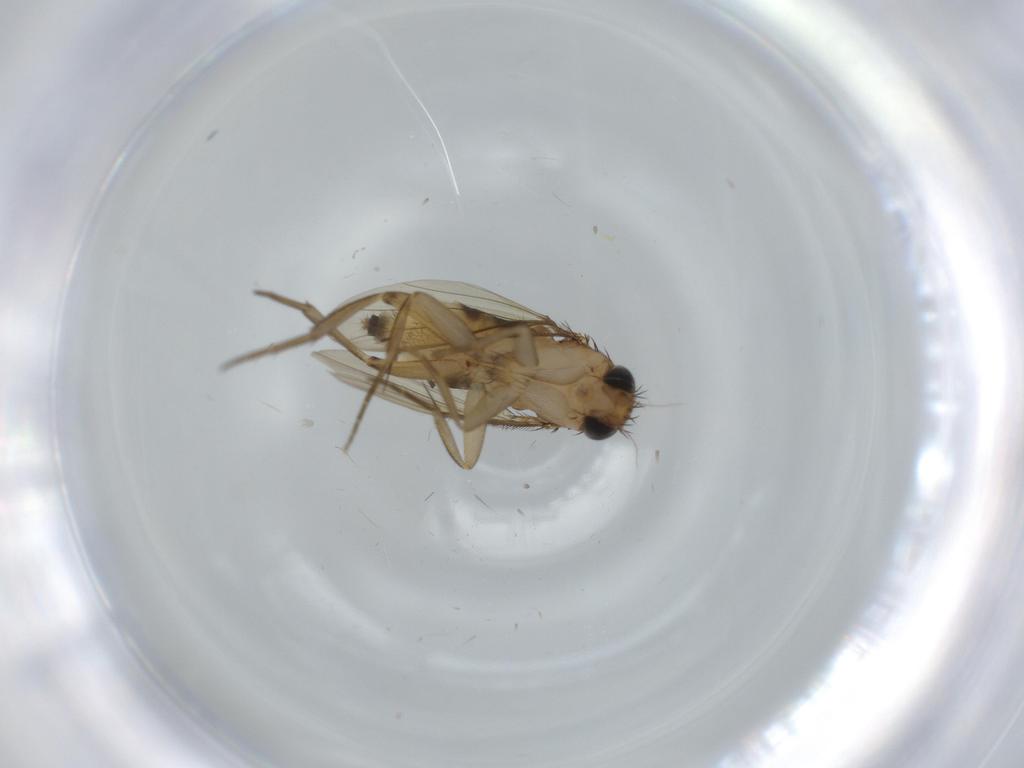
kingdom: Animalia
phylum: Arthropoda
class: Insecta
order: Diptera
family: Phoridae
